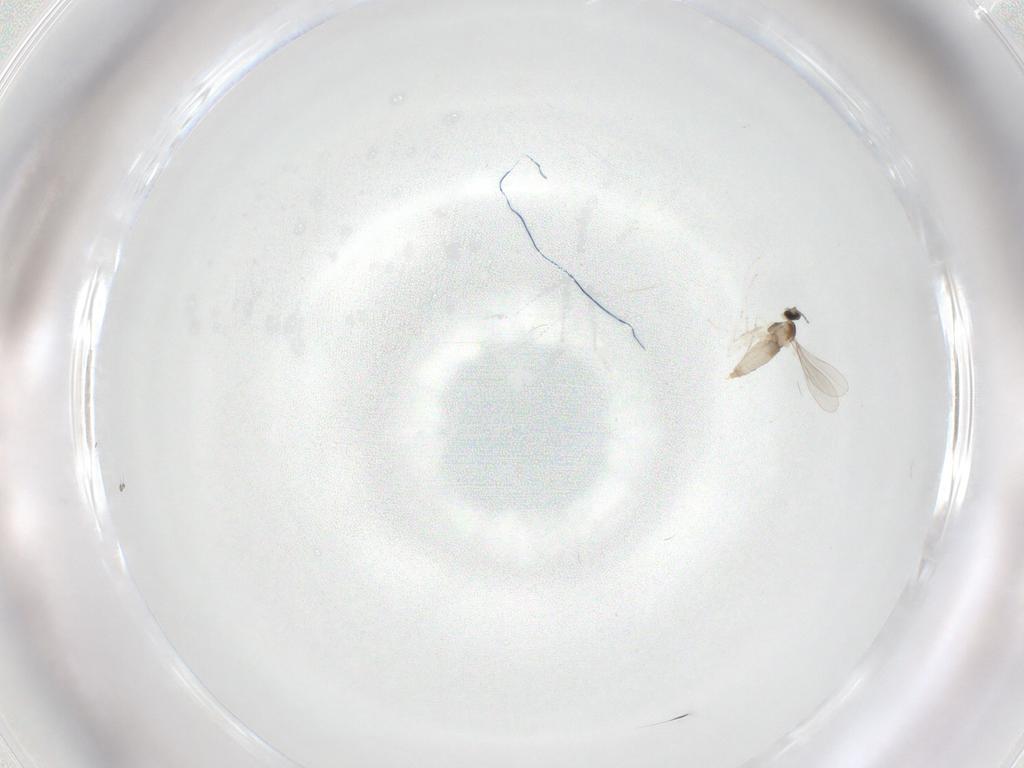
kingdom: Animalia
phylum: Arthropoda
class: Insecta
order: Diptera
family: Cecidomyiidae
